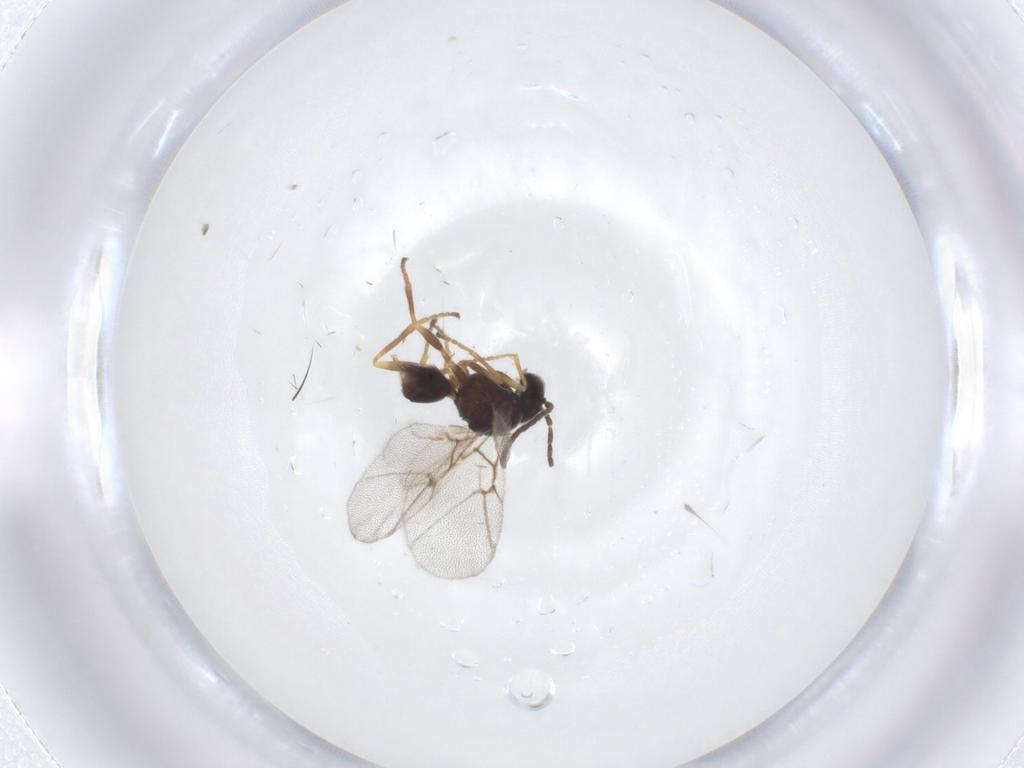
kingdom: Animalia
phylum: Arthropoda
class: Insecta
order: Hymenoptera
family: Cynipidae
